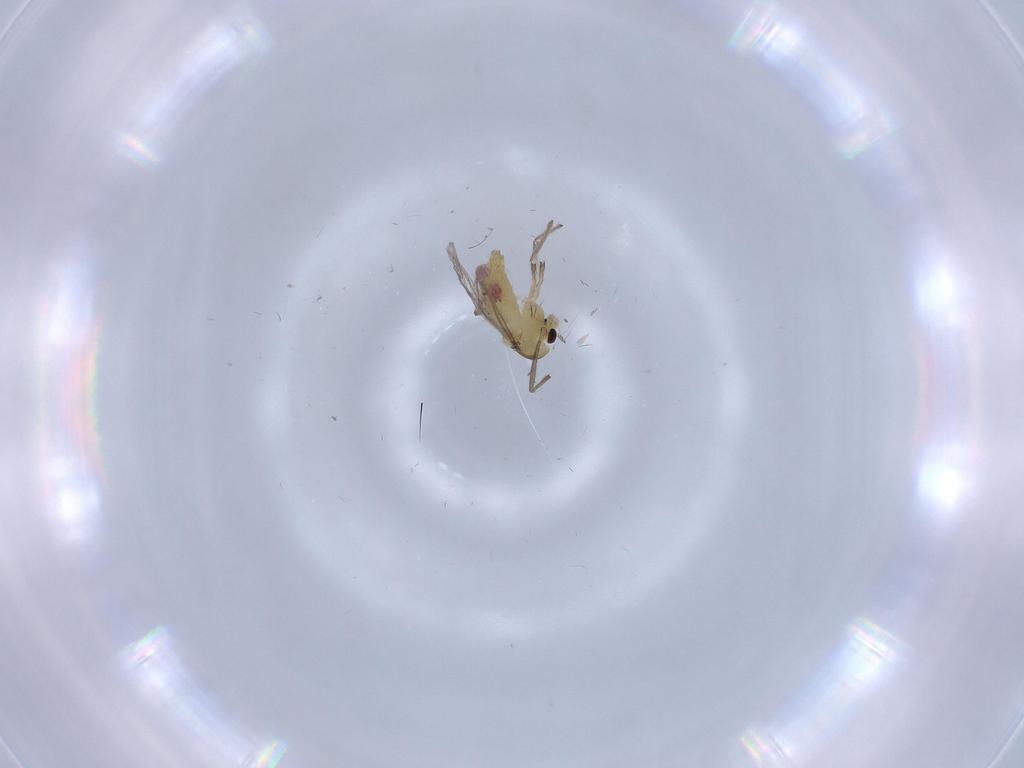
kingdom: Animalia
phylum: Arthropoda
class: Insecta
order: Diptera
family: Chironomidae
